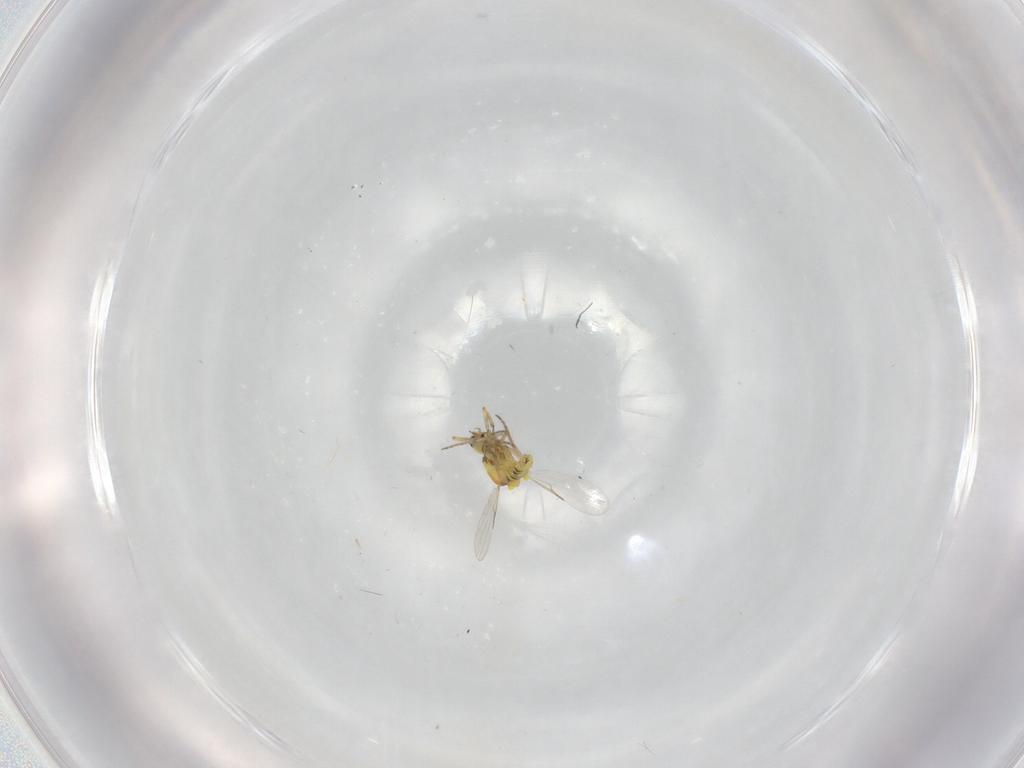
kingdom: Animalia
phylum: Arthropoda
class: Insecta
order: Diptera
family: Ceratopogonidae
